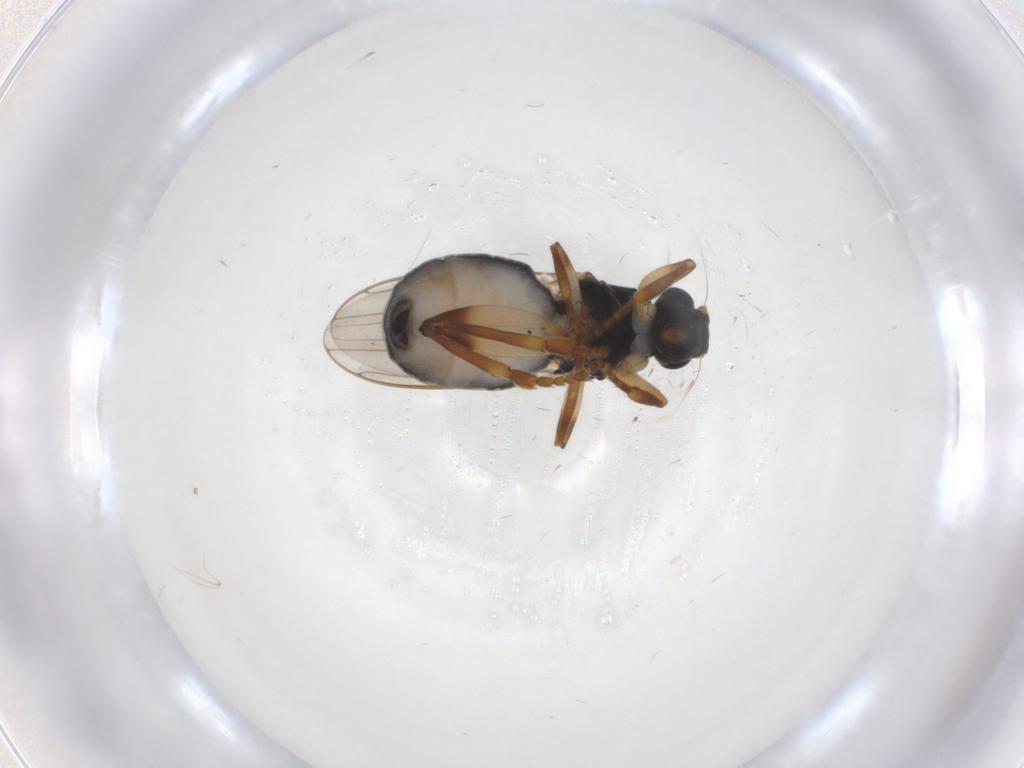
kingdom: Animalia
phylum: Arthropoda
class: Insecta
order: Diptera
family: Sphaeroceridae
